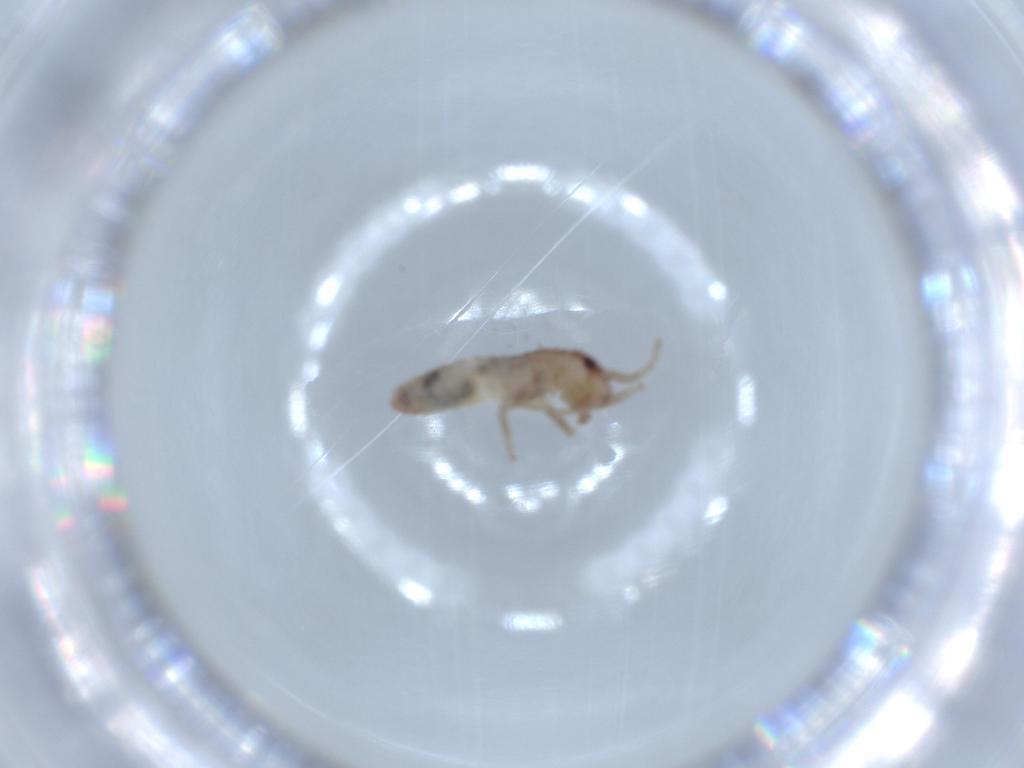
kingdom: Animalia
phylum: Arthropoda
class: Insecta
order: Orthoptera
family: Mogoplistidae
